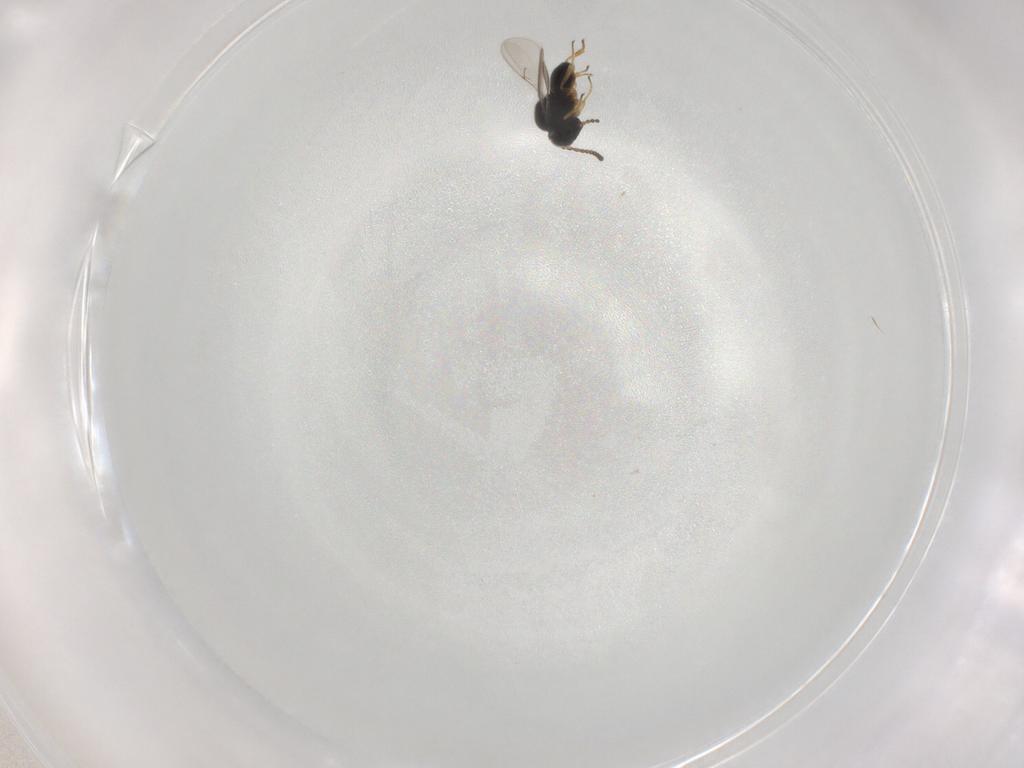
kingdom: Animalia
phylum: Arthropoda
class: Insecta
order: Hymenoptera
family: Scelionidae
